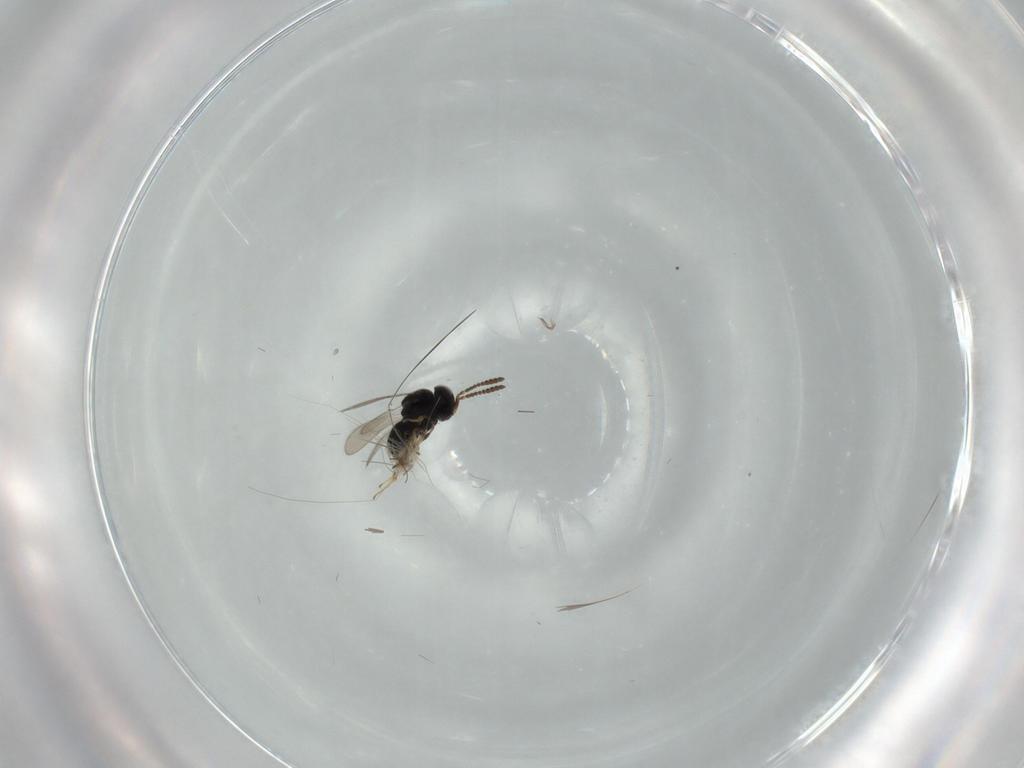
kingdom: Animalia
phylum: Arthropoda
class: Insecta
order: Hymenoptera
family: Scelionidae
